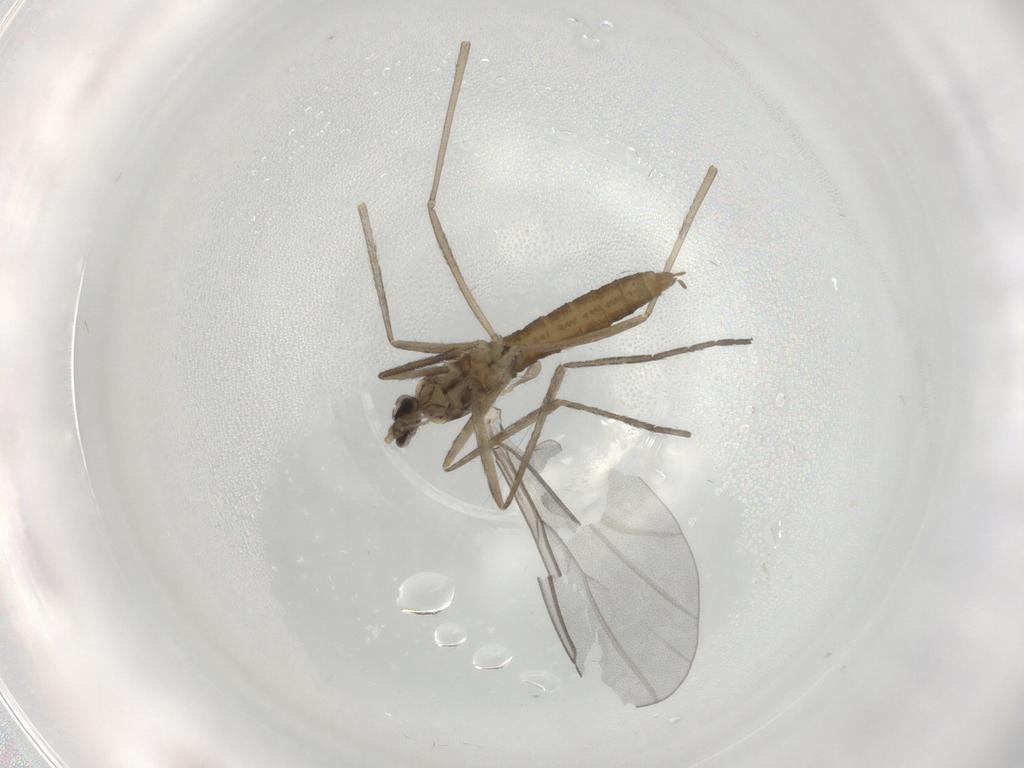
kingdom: Animalia
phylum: Arthropoda
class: Insecta
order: Diptera
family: Cecidomyiidae
